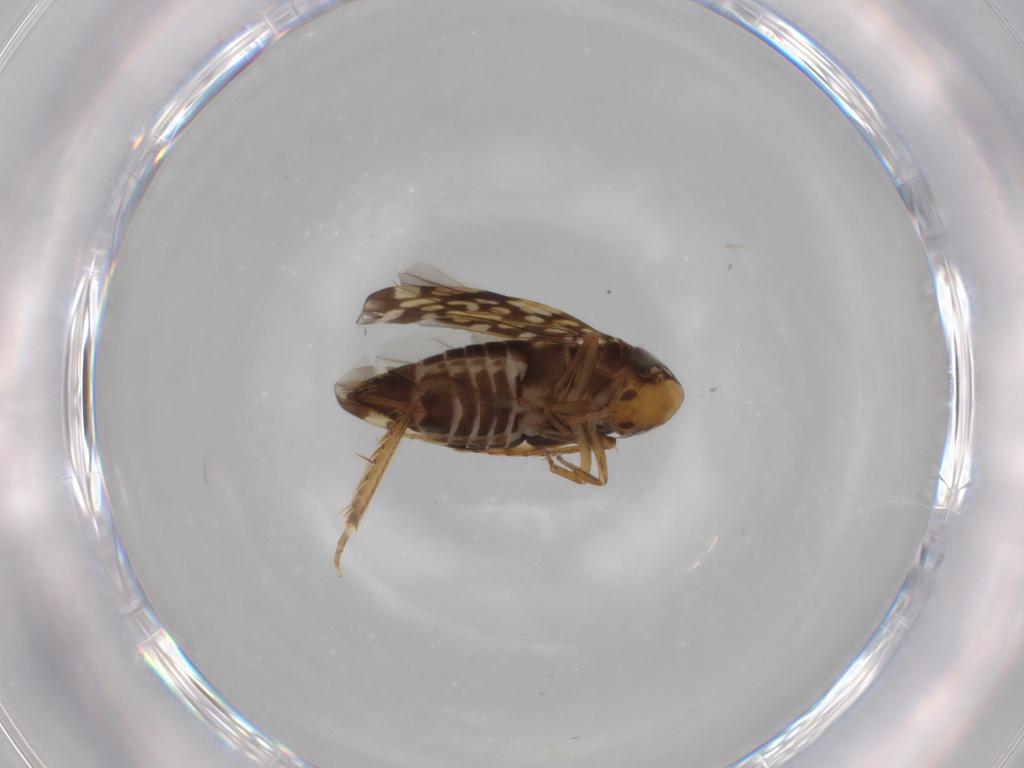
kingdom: Animalia
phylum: Arthropoda
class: Insecta
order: Hemiptera
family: Cicadellidae
